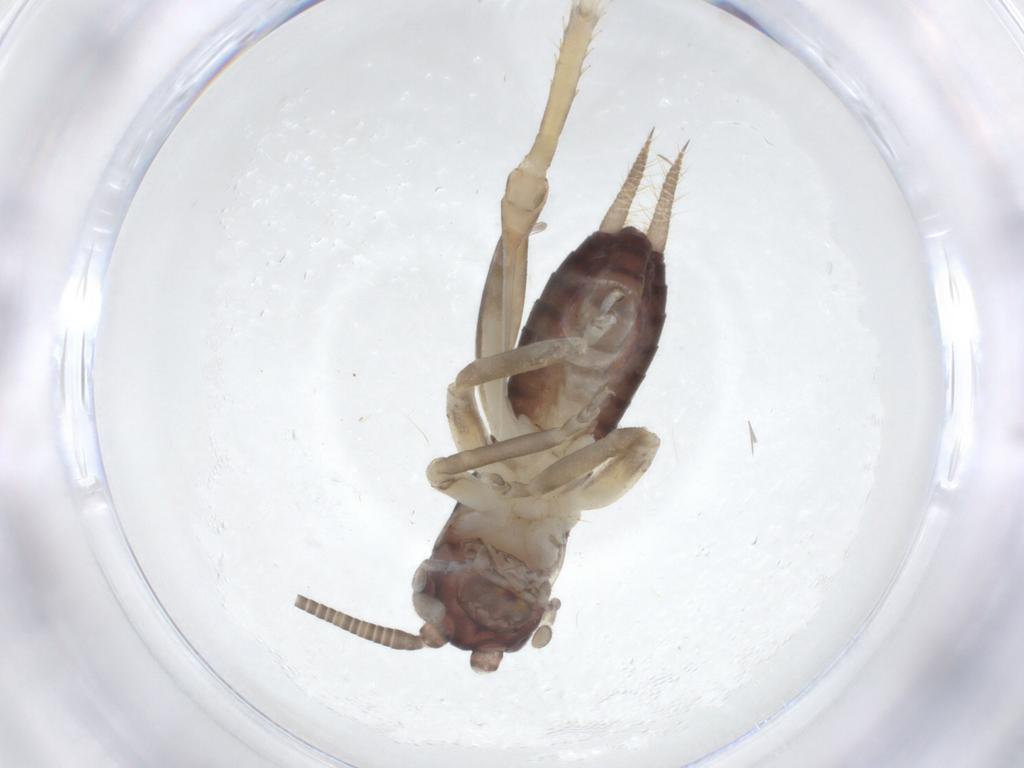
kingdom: Animalia
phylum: Arthropoda
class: Insecta
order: Orthoptera
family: Gryllidae
